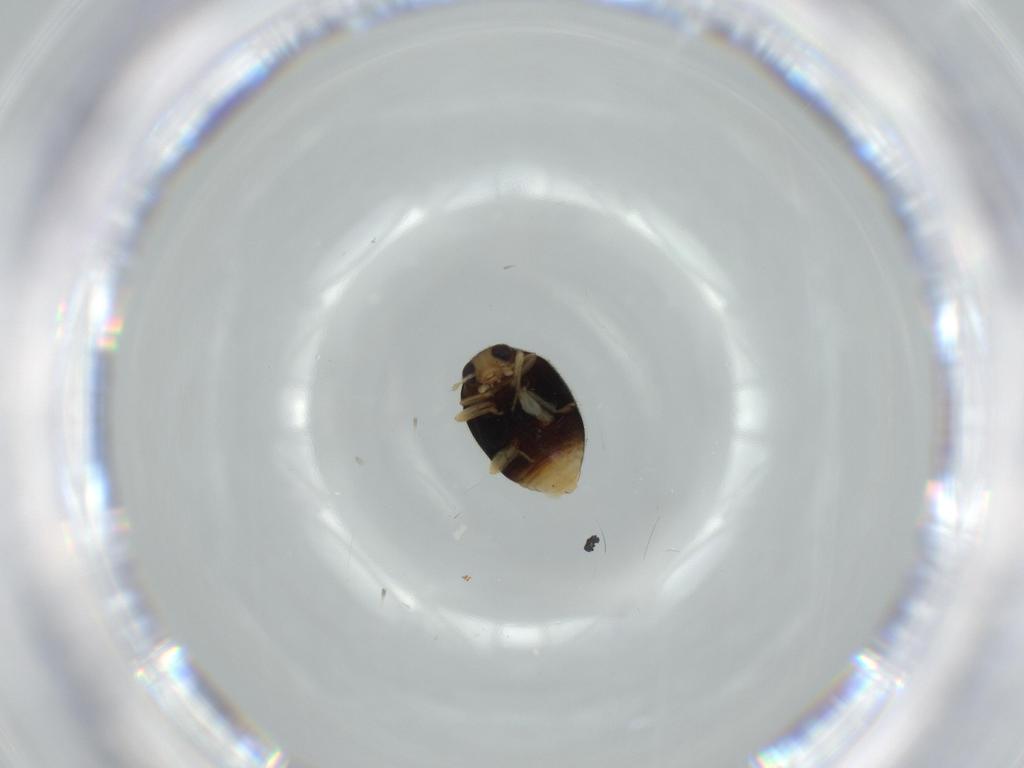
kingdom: Animalia
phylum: Arthropoda
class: Insecta
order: Coleoptera
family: Coccinellidae
